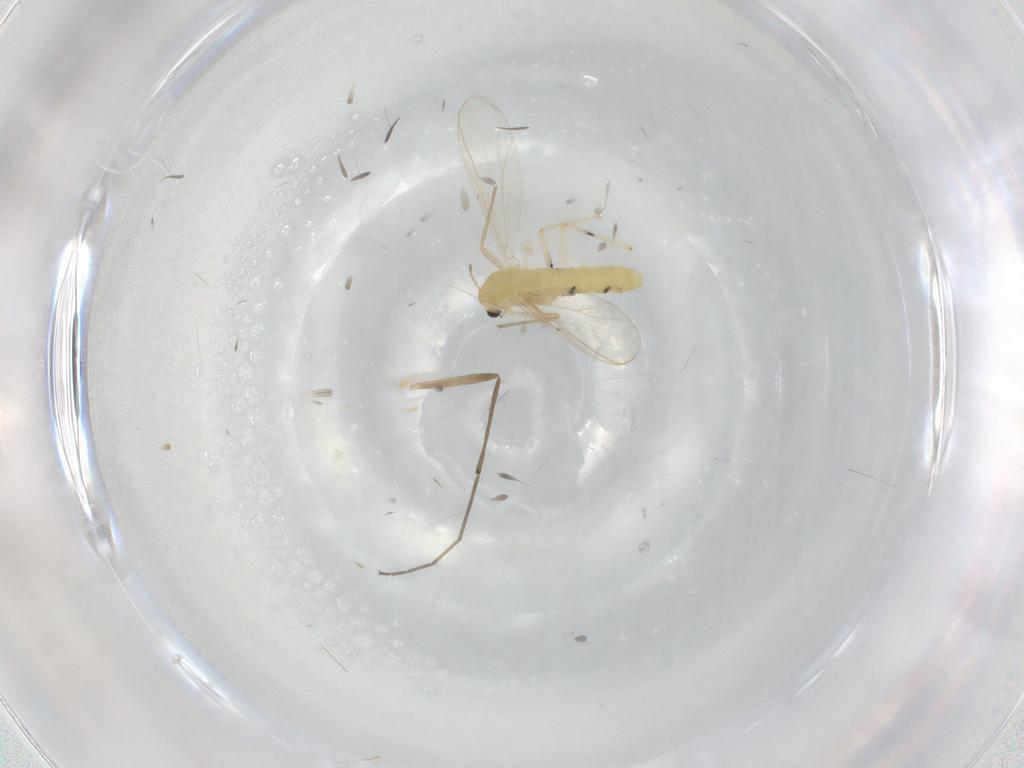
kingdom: Animalia
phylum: Arthropoda
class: Insecta
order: Diptera
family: Chironomidae
